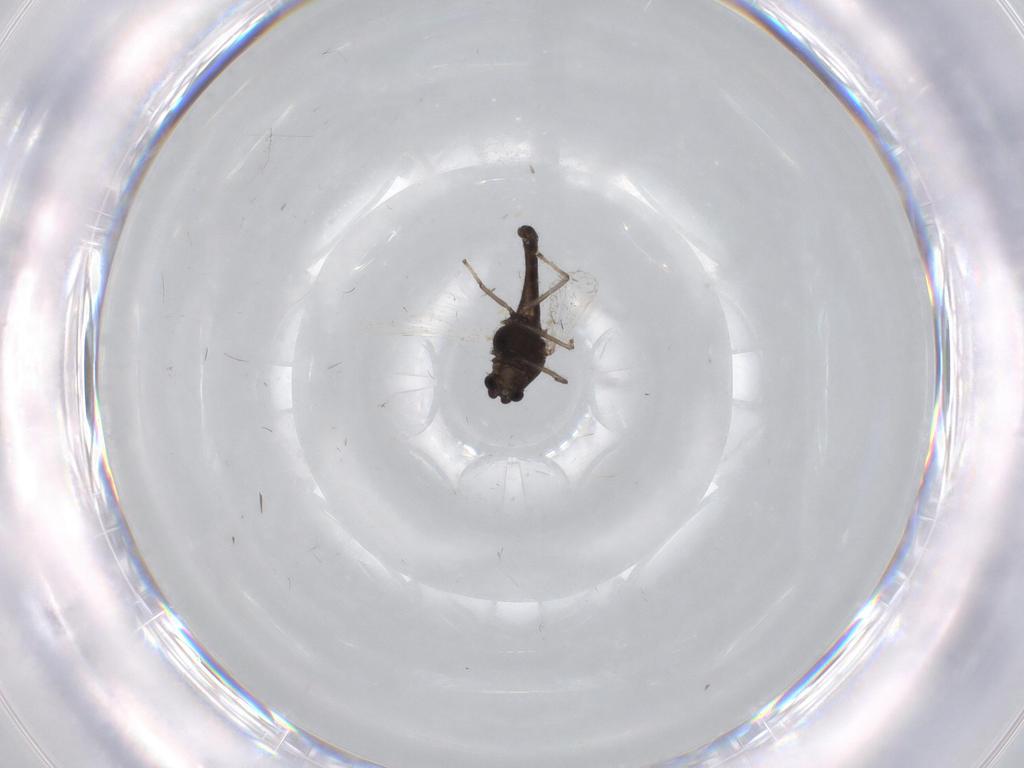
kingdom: Animalia
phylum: Arthropoda
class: Insecta
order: Diptera
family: Chironomidae
